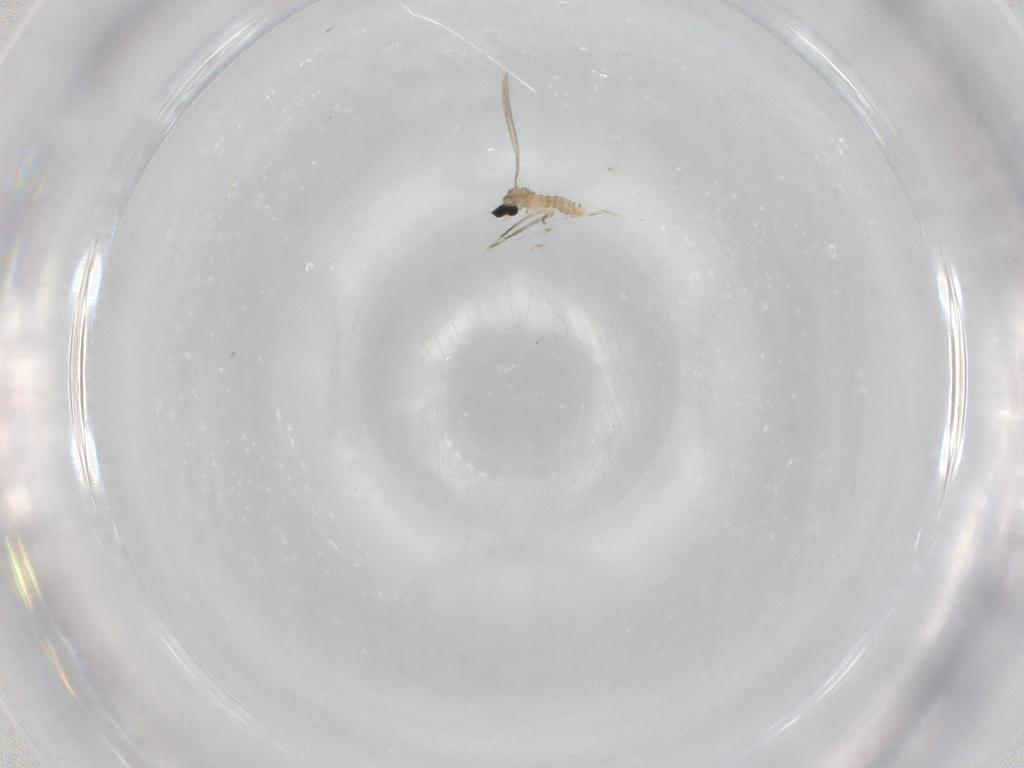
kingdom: Animalia
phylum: Arthropoda
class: Insecta
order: Diptera
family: Cecidomyiidae
